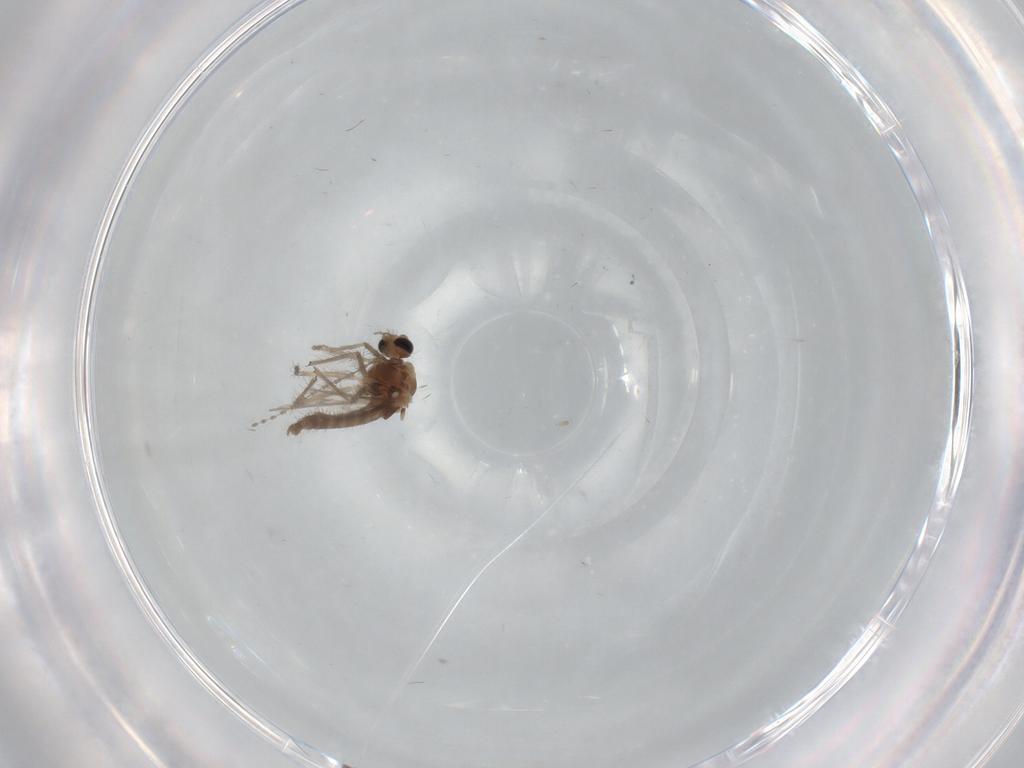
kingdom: Animalia
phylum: Arthropoda
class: Insecta
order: Diptera
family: Chironomidae
